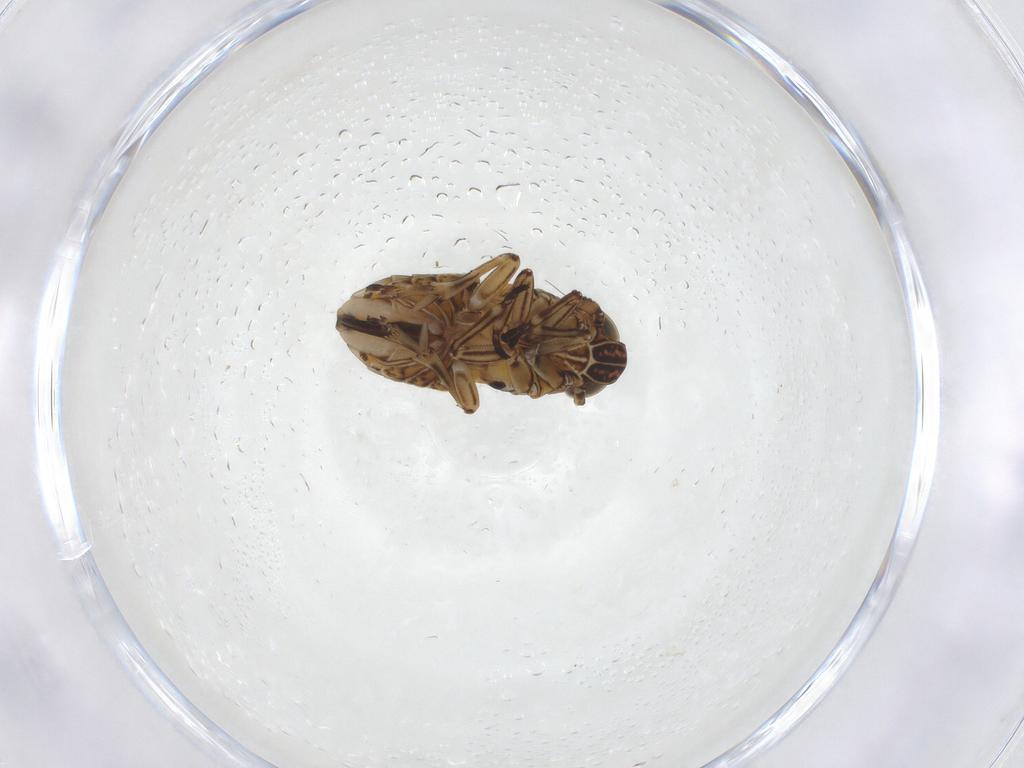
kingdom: Animalia
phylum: Arthropoda
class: Insecta
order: Hemiptera
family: Delphacidae
